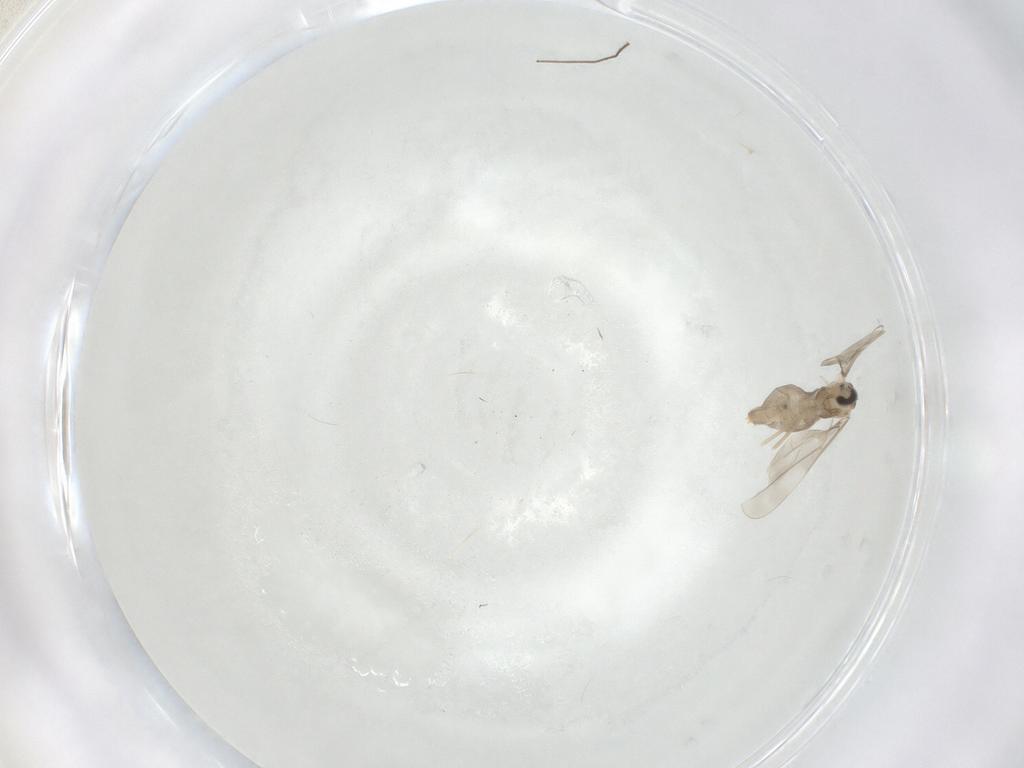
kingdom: Animalia
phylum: Arthropoda
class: Insecta
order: Diptera
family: Cecidomyiidae
